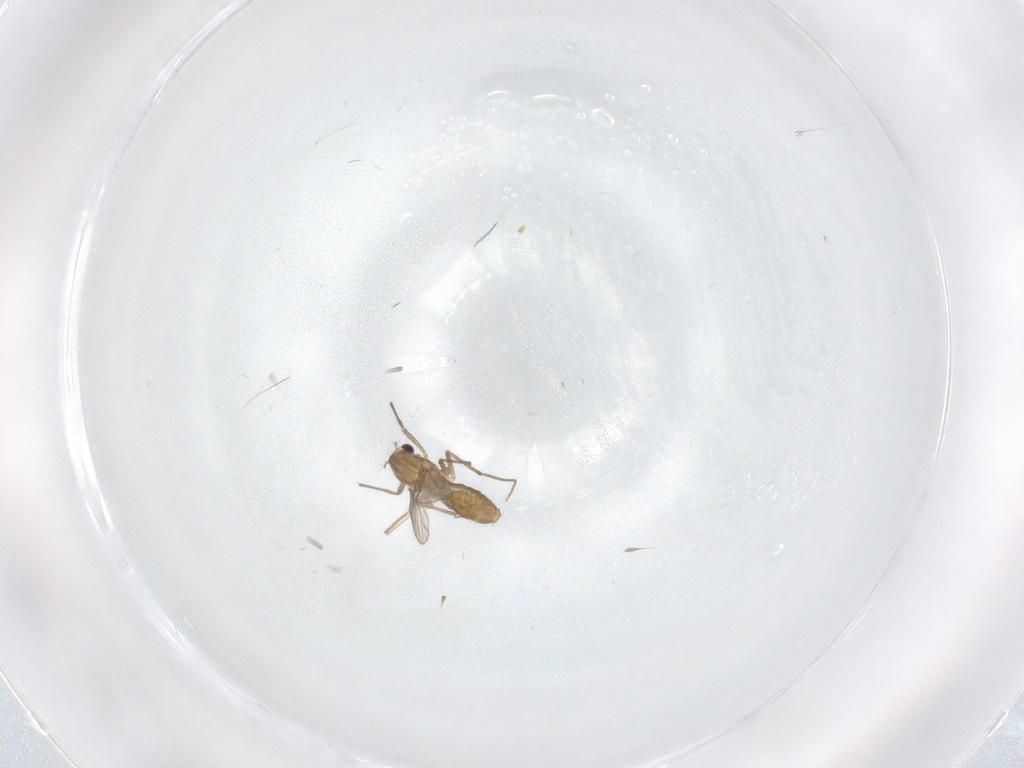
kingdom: Animalia
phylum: Arthropoda
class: Insecta
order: Diptera
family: Chironomidae
